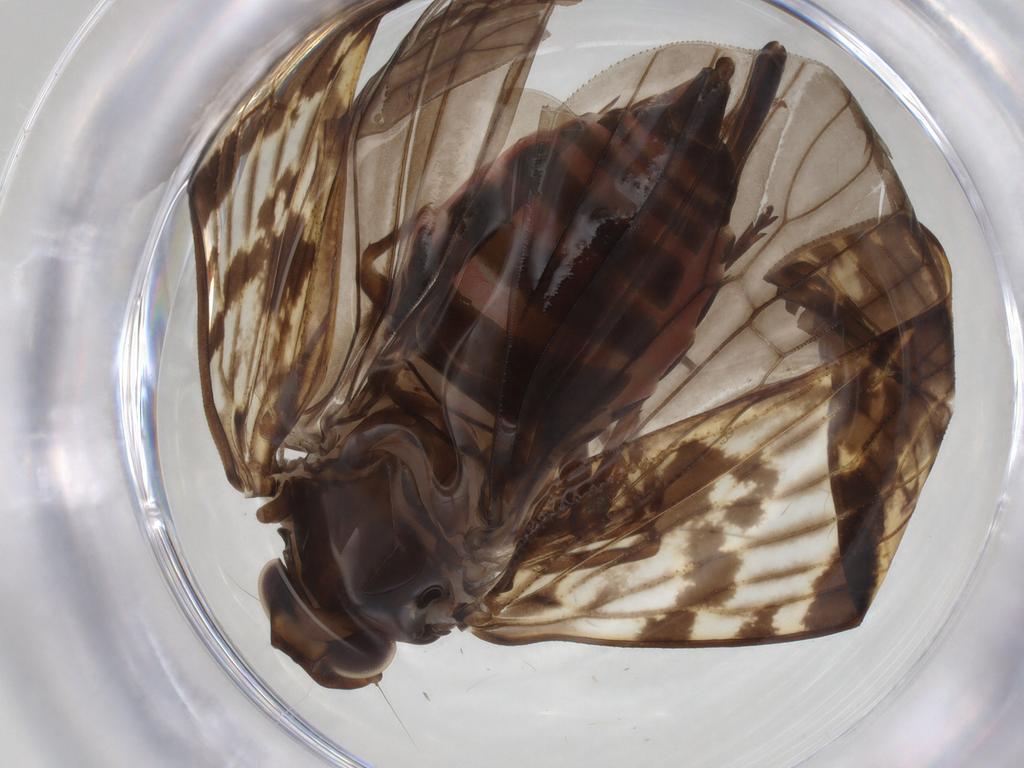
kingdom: Animalia
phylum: Arthropoda
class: Insecta
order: Hemiptera
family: Cixiidae
